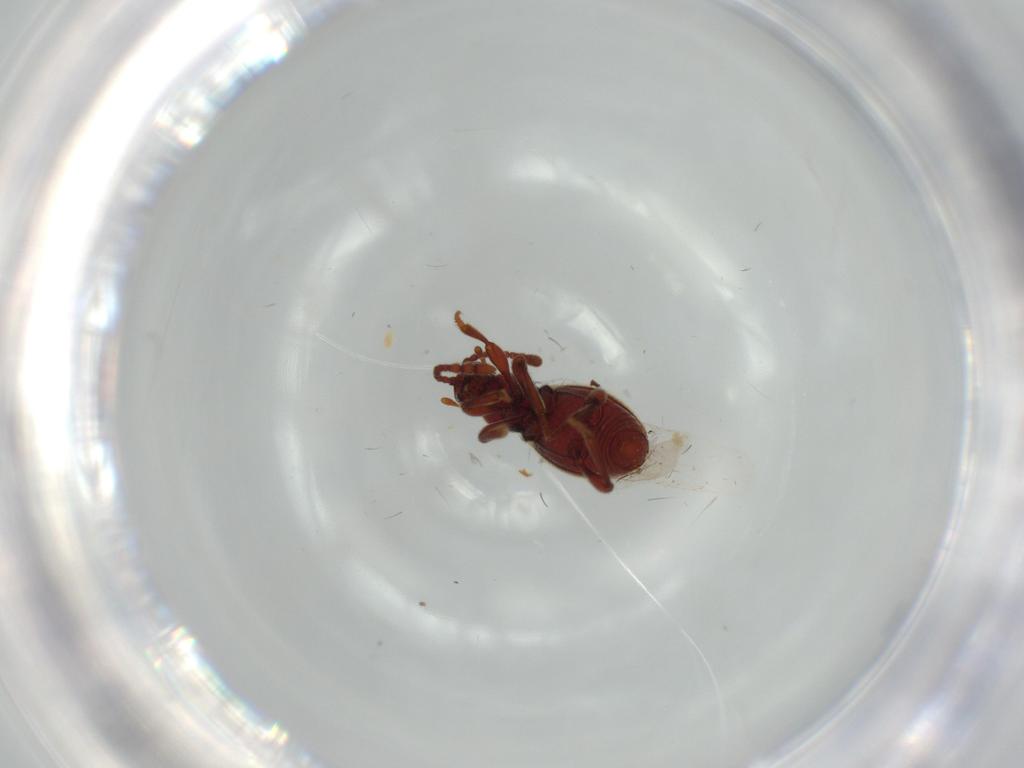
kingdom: Animalia
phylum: Arthropoda
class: Insecta
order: Coleoptera
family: Staphylinidae
